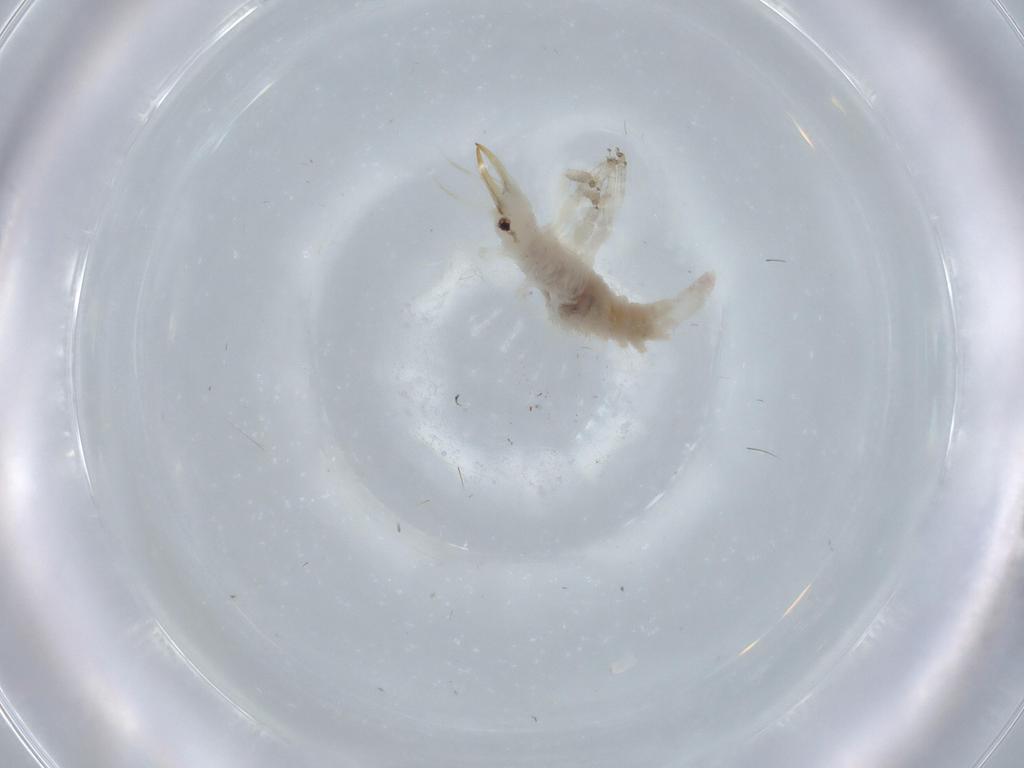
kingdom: Animalia
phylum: Arthropoda
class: Insecta
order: Neuroptera
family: Chrysopidae
